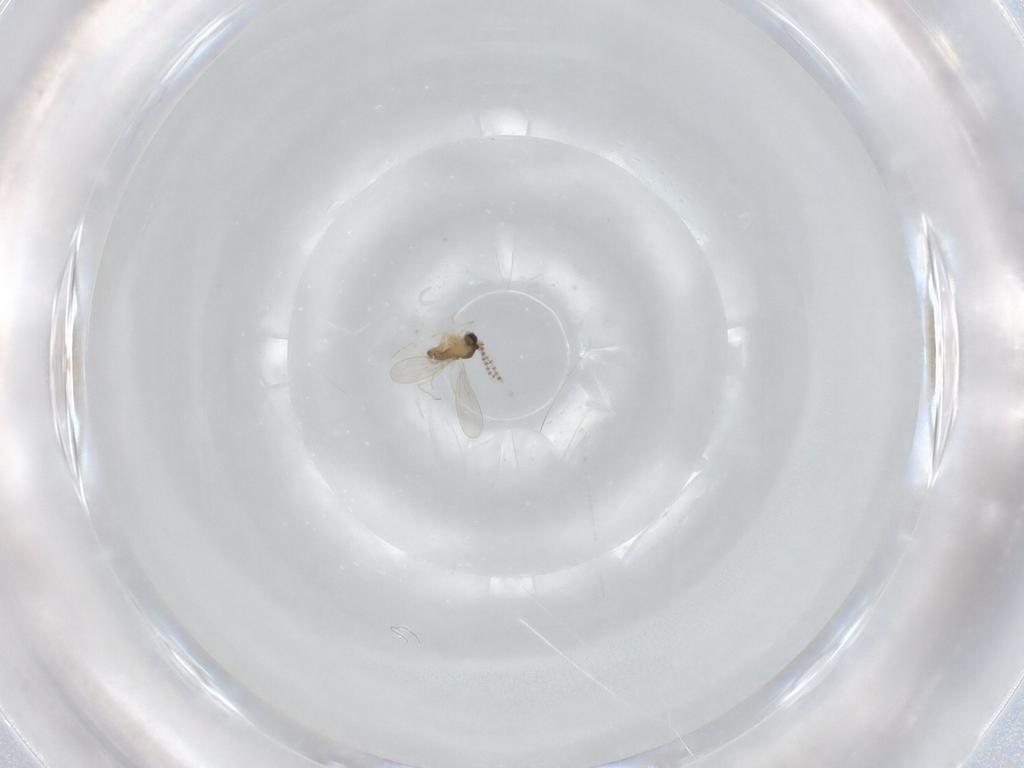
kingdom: Animalia
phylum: Arthropoda
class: Insecta
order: Diptera
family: Cecidomyiidae
